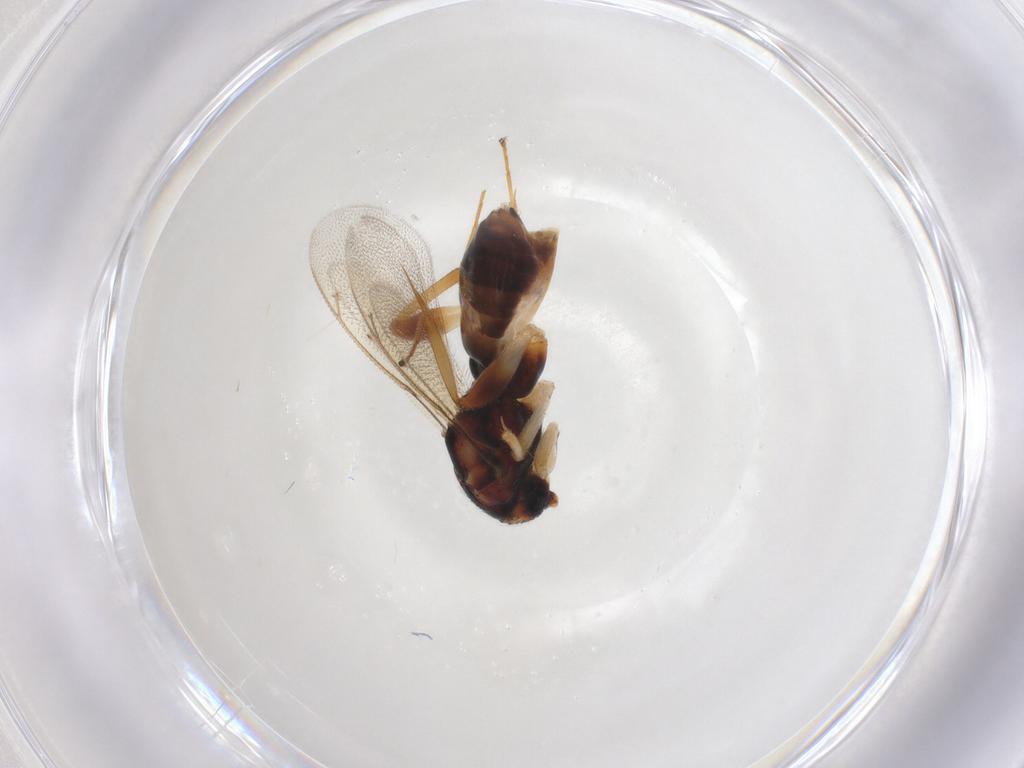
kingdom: Animalia
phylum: Arthropoda
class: Insecta
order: Hymenoptera
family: Eulophidae
